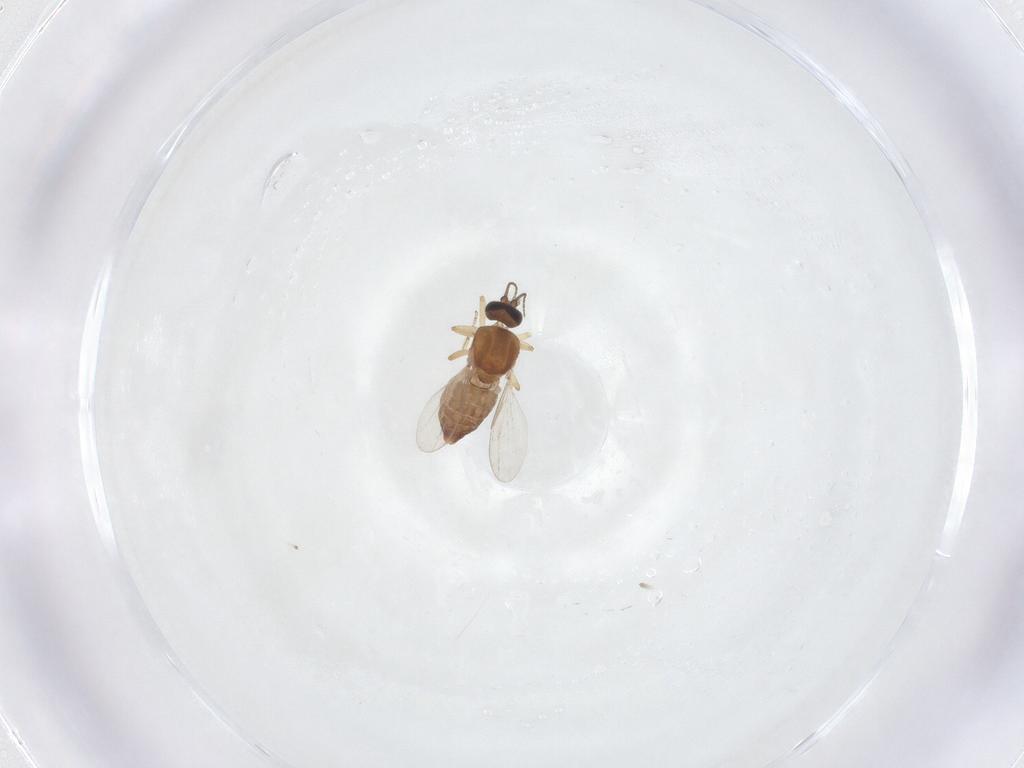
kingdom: Animalia
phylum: Arthropoda
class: Insecta
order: Diptera
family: Ceratopogonidae
